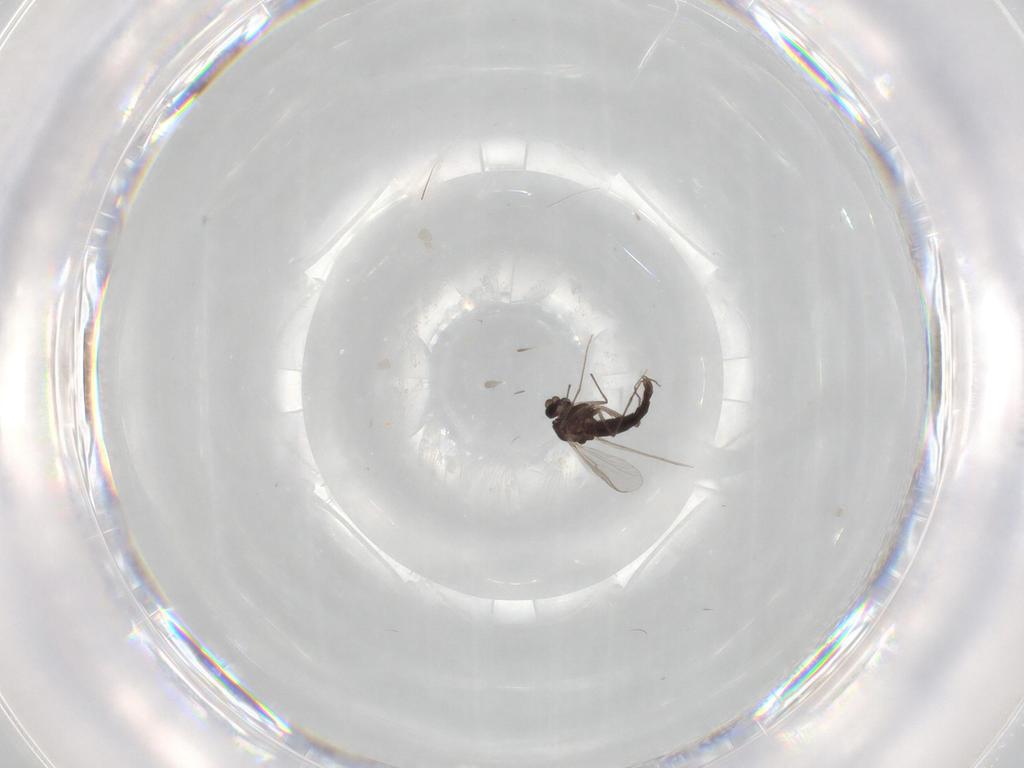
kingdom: Animalia
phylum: Arthropoda
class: Insecta
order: Diptera
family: Chironomidae
